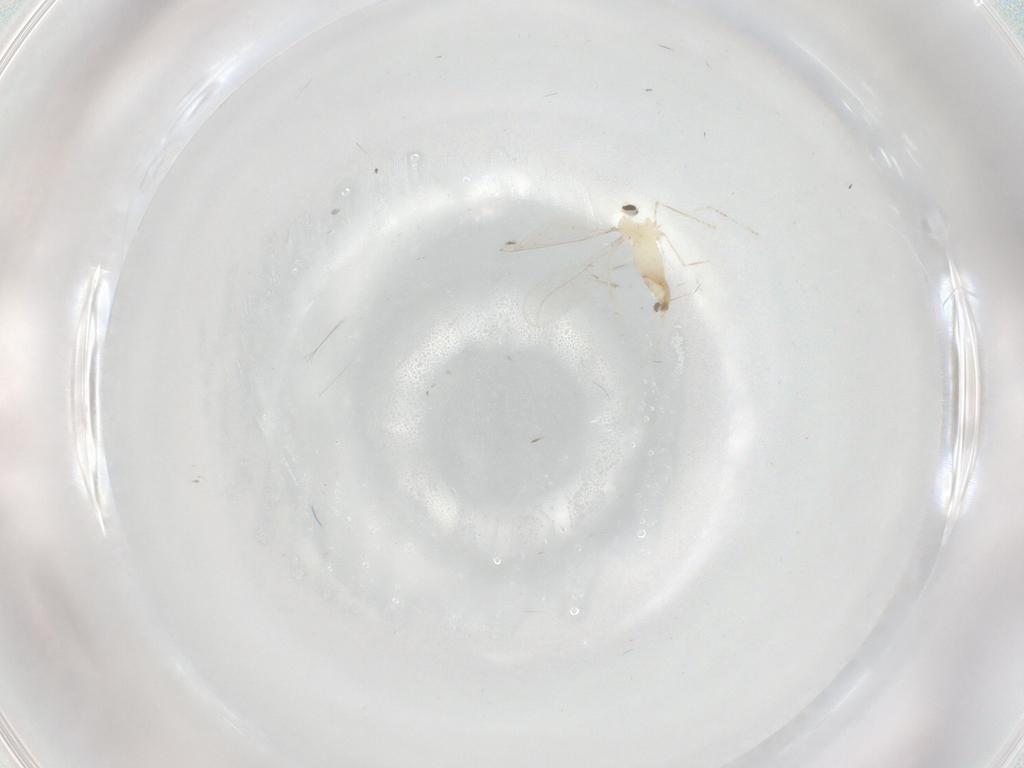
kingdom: Animalia
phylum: Arthropoda
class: Insecta
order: Diptera
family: Cecidomyiidae
